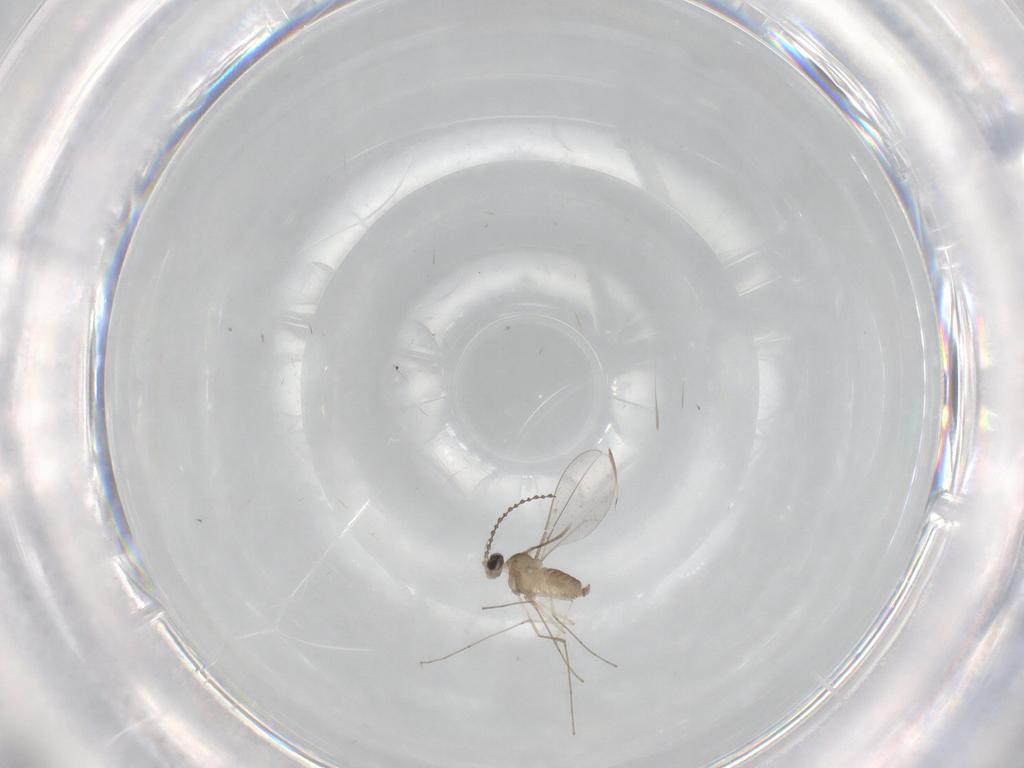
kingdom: Animalia
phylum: Arthropoda
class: Insecta
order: Diptera
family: Cecidomyiidae
